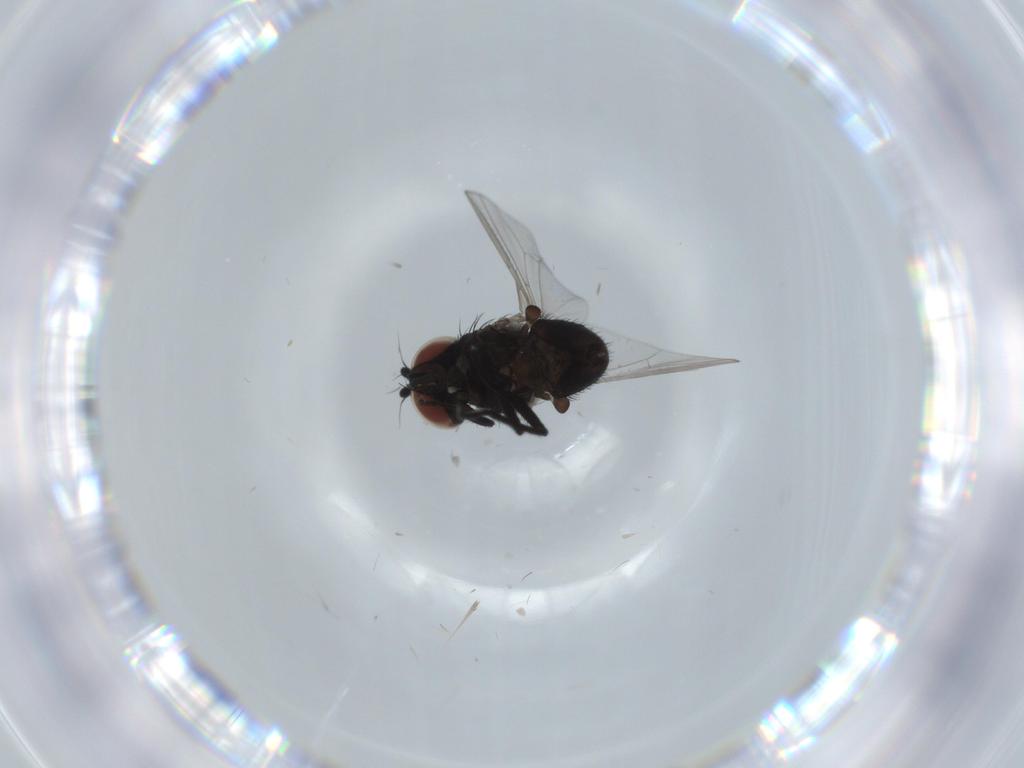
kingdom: Animalia
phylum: Arthropoda
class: Insecta
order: Diptera
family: Milichiidae
